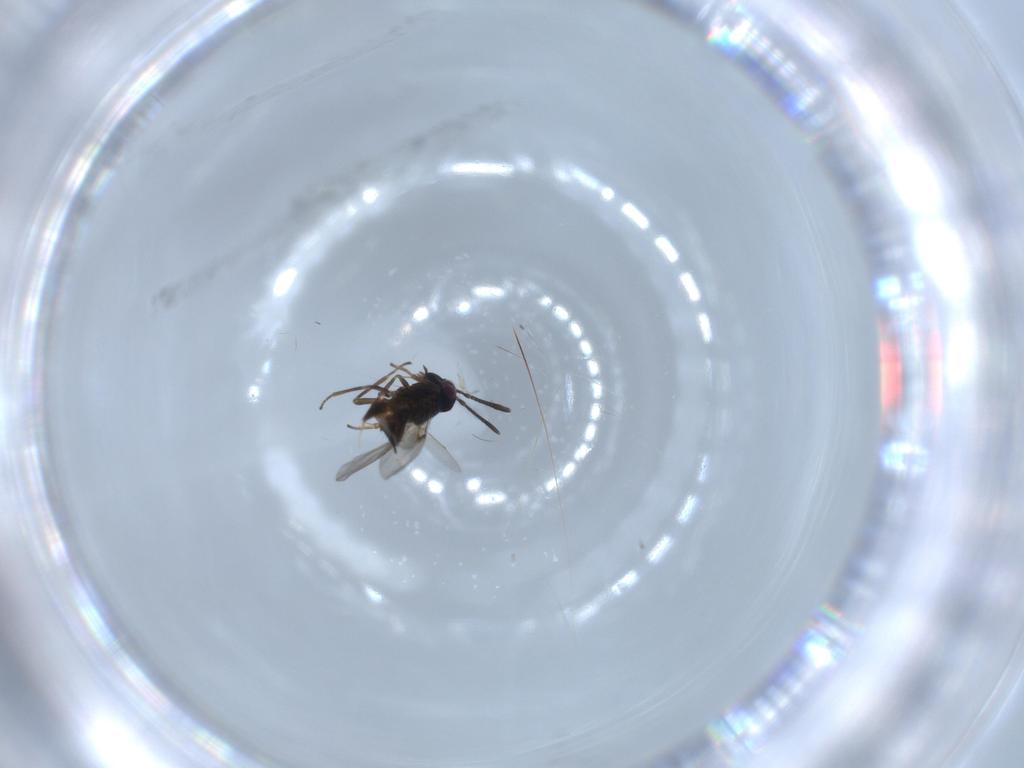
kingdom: Animalia
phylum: Arthropoda
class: Insecta
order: Hymenoptera
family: Encyrtidae
